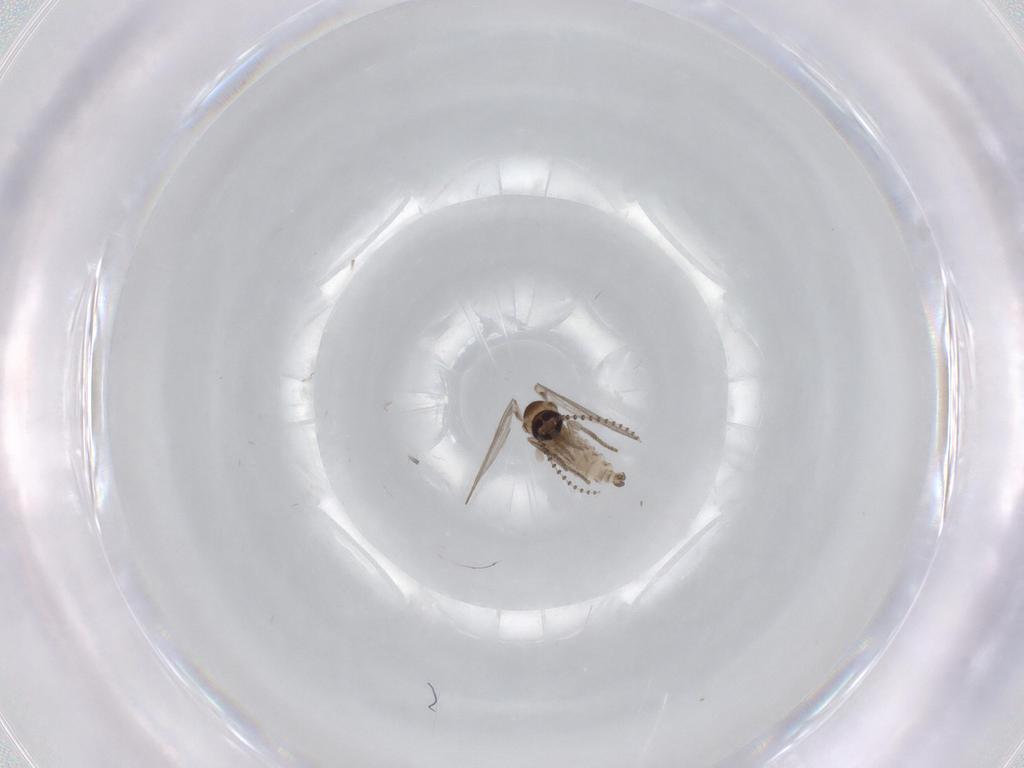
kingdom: Animalia
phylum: Arthropoda
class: Insecta
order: Diptera
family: Psychodidae
